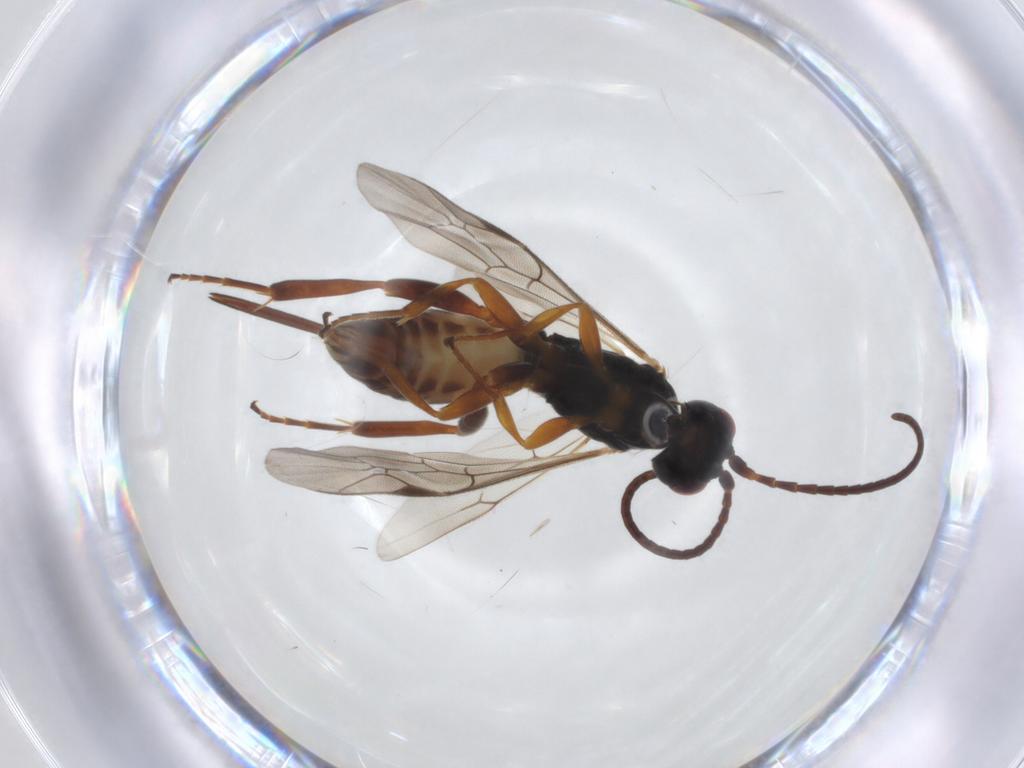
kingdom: Animalia
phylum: Arthropoda
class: Insecta
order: Hymenoptera
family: Ichneumonidae
